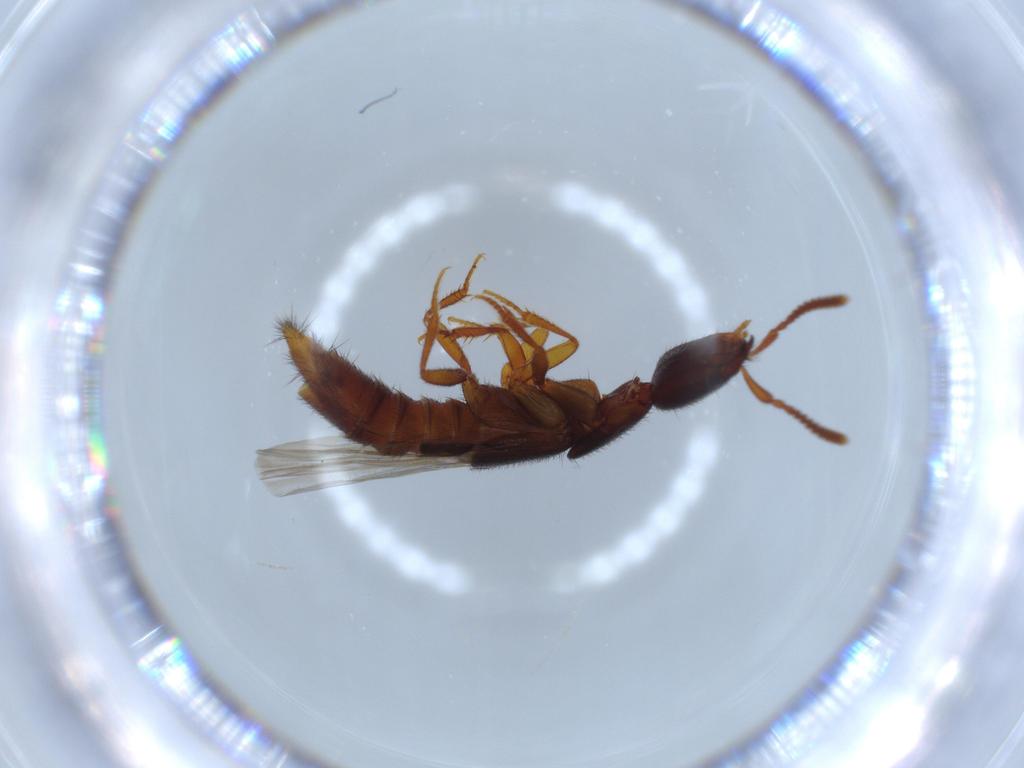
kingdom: Animalia
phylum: Arthropoda
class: Insecta
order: Coleoptera
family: Staphylinidae
